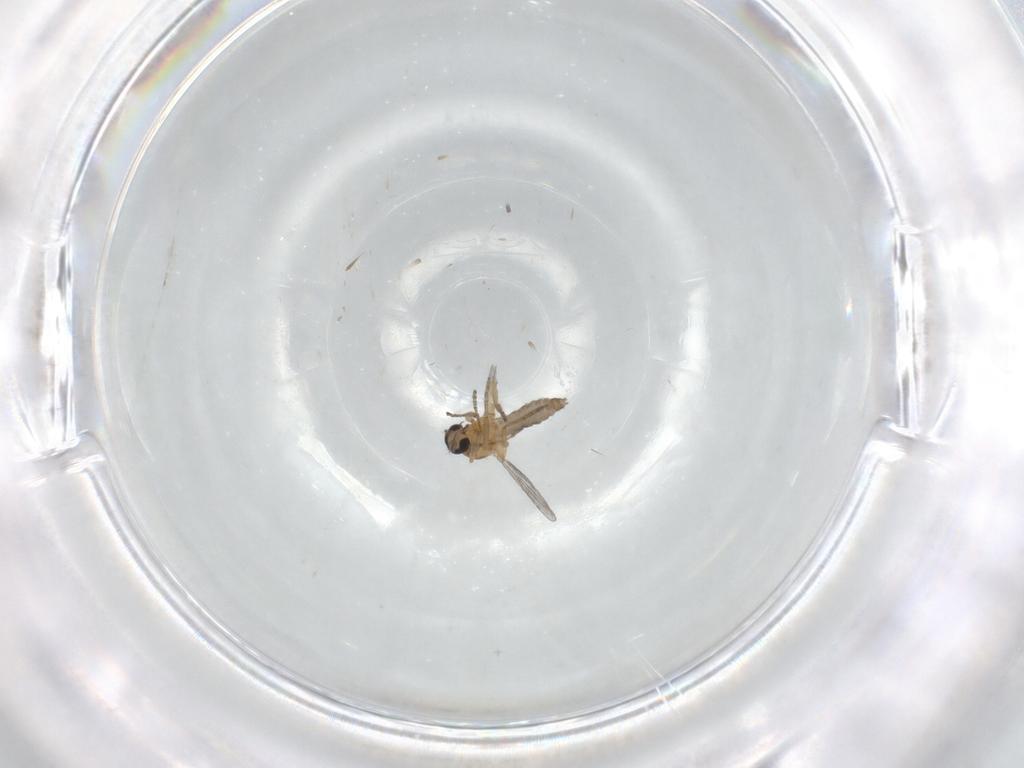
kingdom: Animalia
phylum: Arthropoda
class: Insecta
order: Diptera
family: Ceratopogonidae
